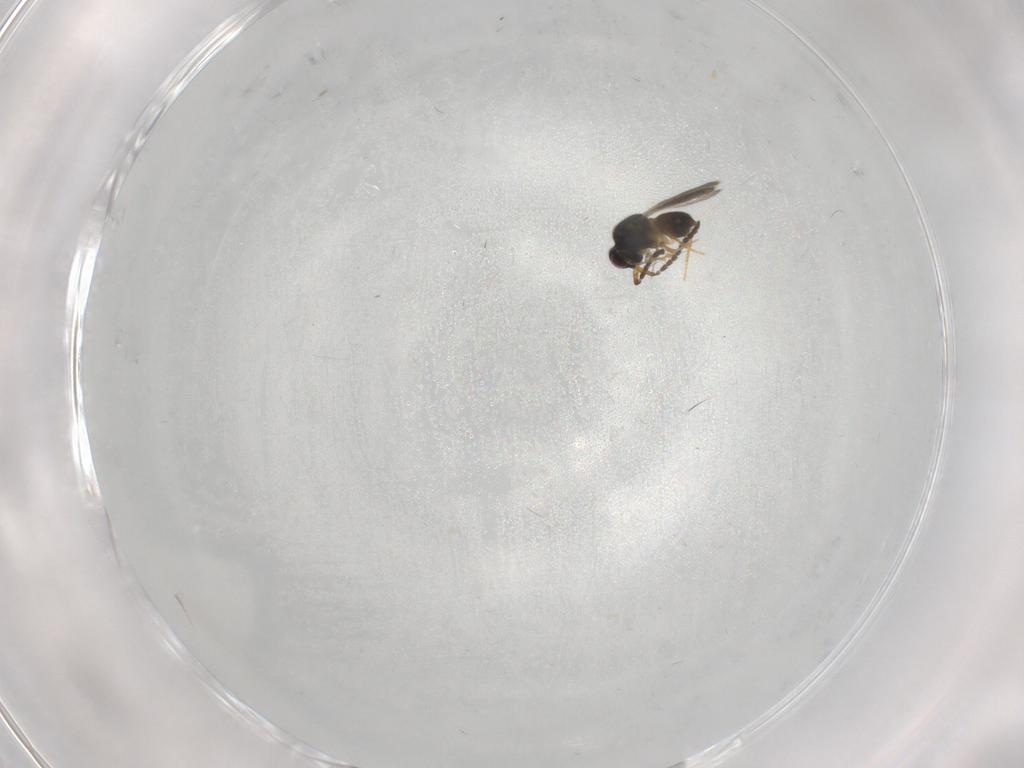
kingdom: Animalia
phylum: Arthropoda
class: Insecta
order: Hymenoptera
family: Ceraphronidae
